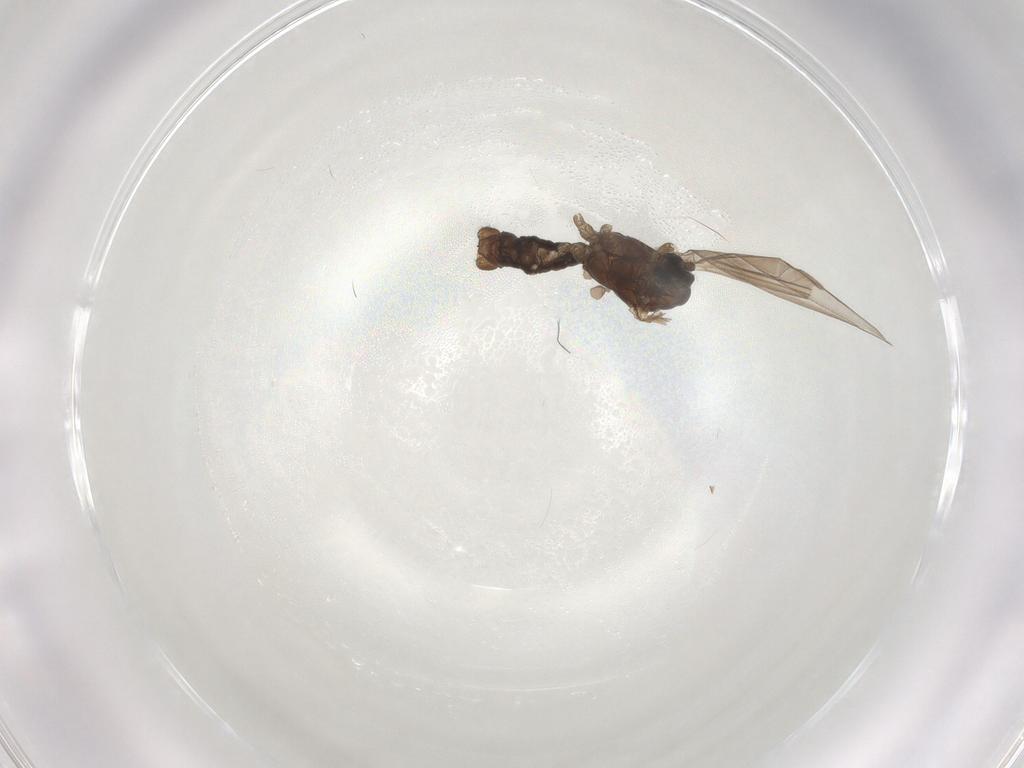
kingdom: Animalia
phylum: Arthropoda
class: Insecta
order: Diptera
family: Limoniidae
